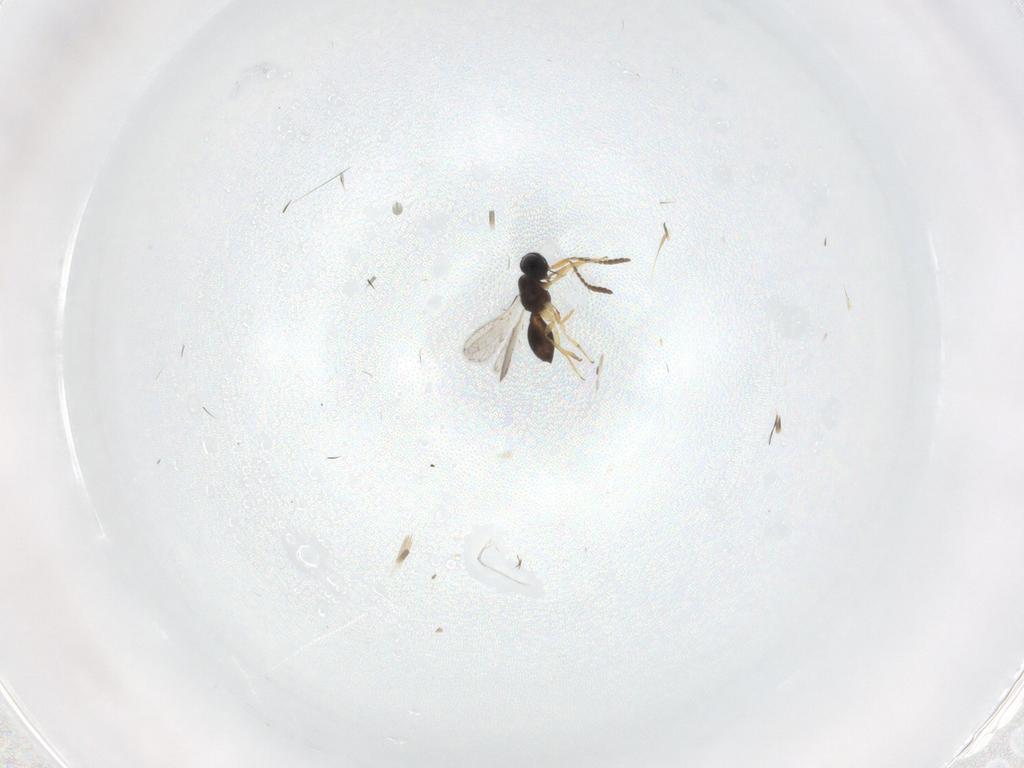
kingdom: Animalia
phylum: Arthropoda
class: Insecta
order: Hymenoptera
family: Scelionidae
